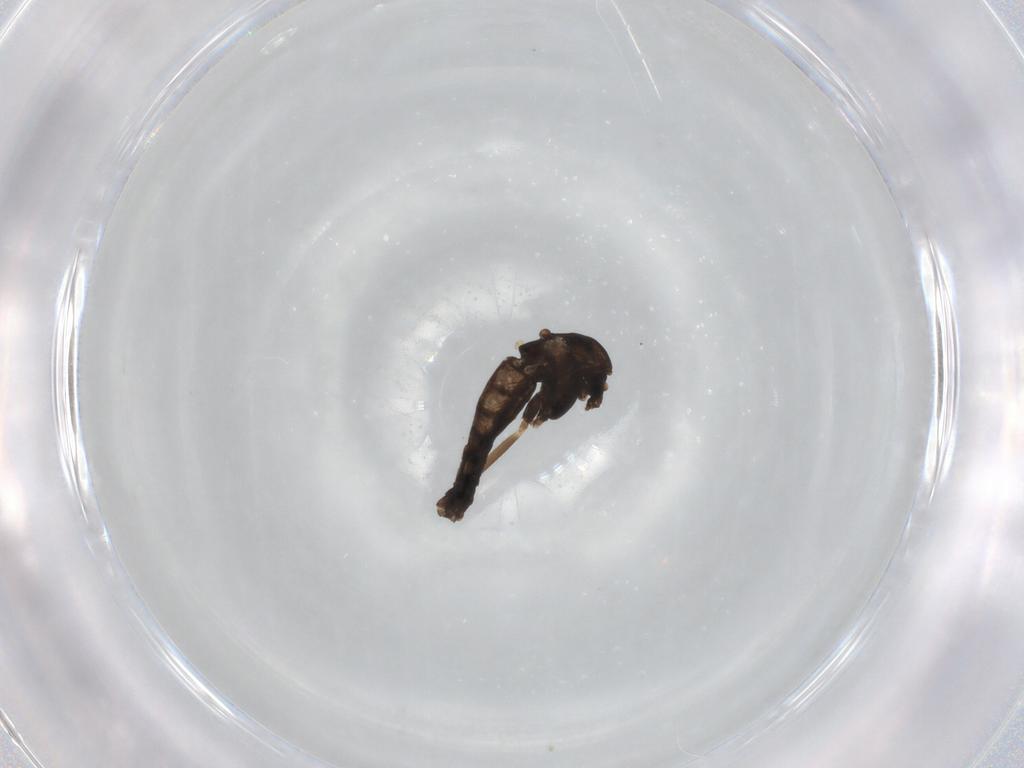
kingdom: Animalia
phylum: Arthropoda
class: Insecta
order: Diptera
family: Chironomidae
